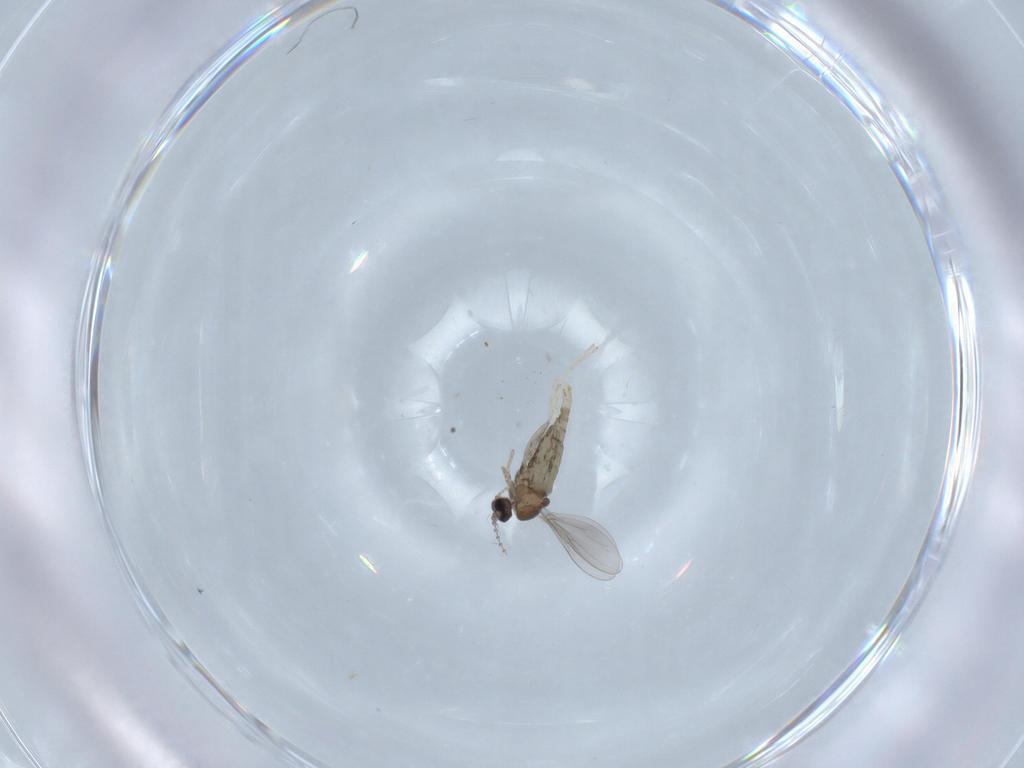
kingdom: Animalia
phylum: Arthropoda
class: Insecta
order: Diptera
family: Cecidomyiidae
